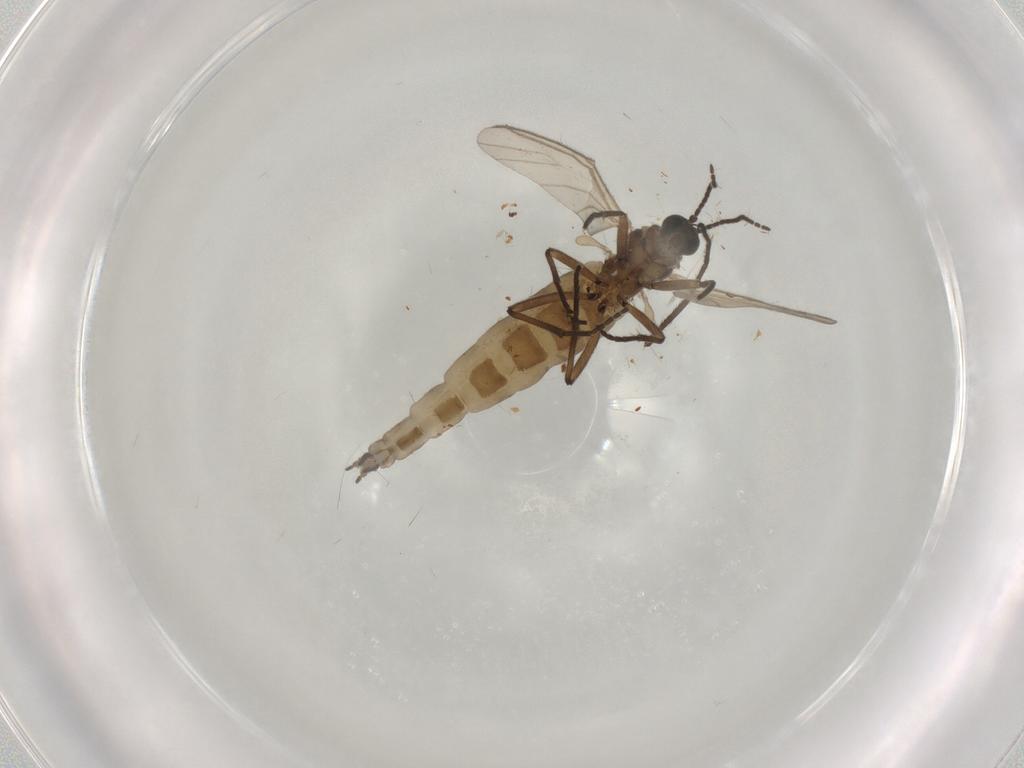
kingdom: Animalia
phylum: Arthropoda
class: Insecta
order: Diptera
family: Sciaridae
